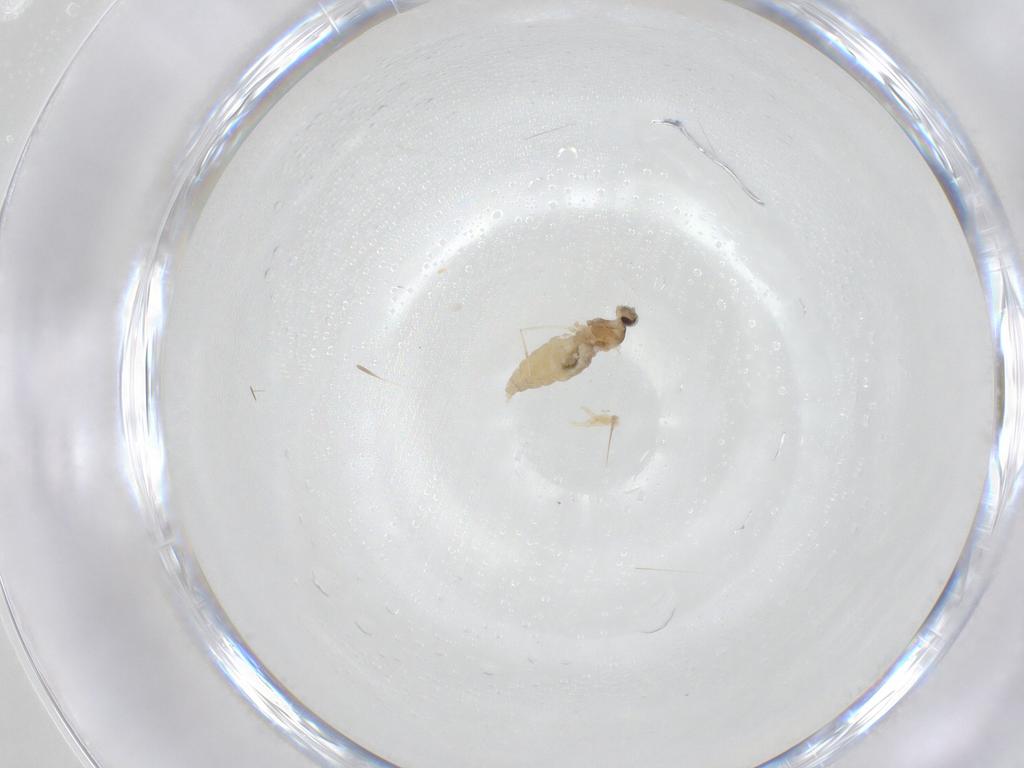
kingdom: Animalia
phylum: Arthropoda
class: Insecta
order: Diptera
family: Cecidomyiidae
